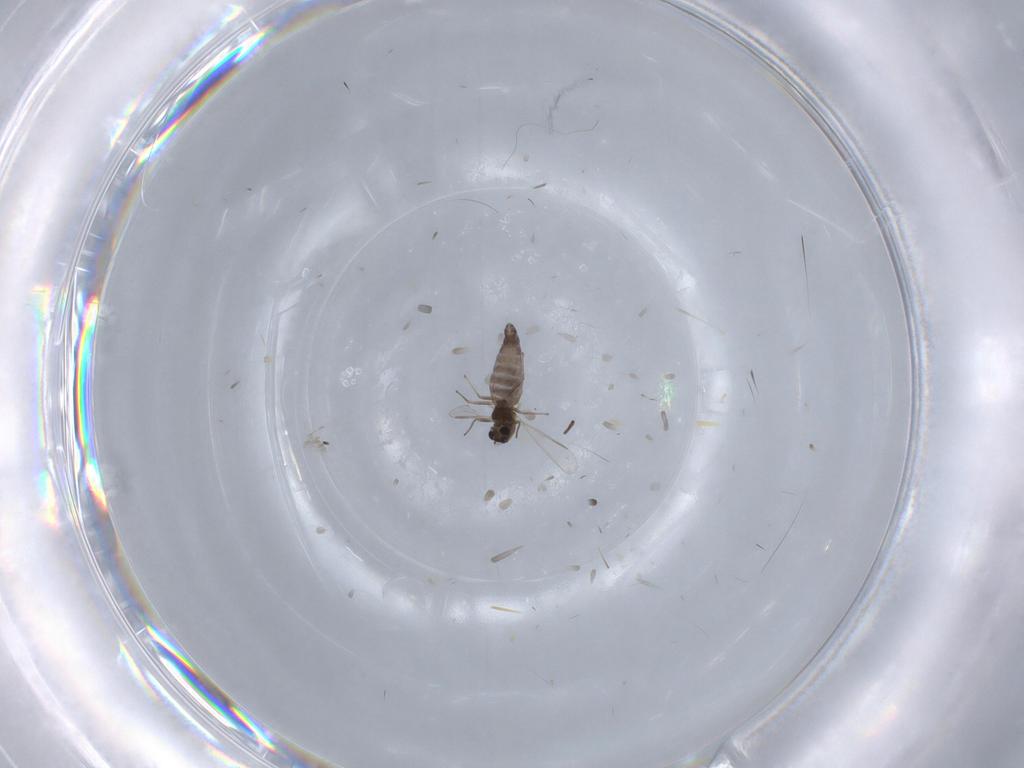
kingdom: Animalia
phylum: Arthropoda
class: Insecta
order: Diptera
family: Chironomidae
